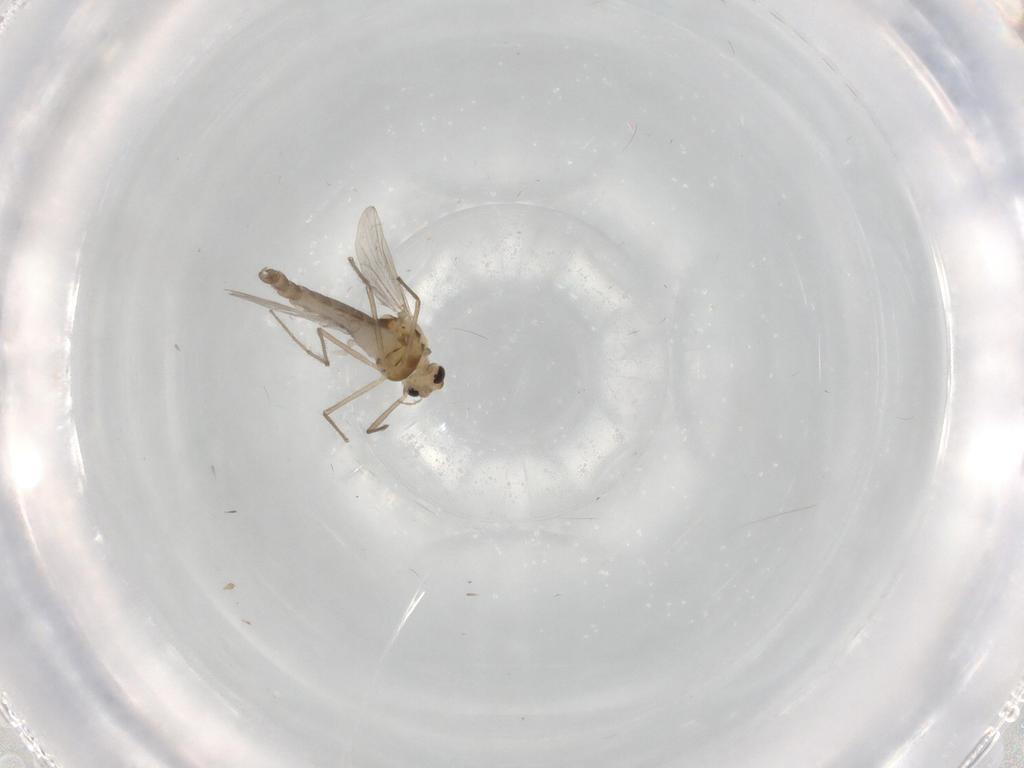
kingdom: Animalia
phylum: Arthropoda
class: Insecta
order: Diptera
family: Chironomidae
